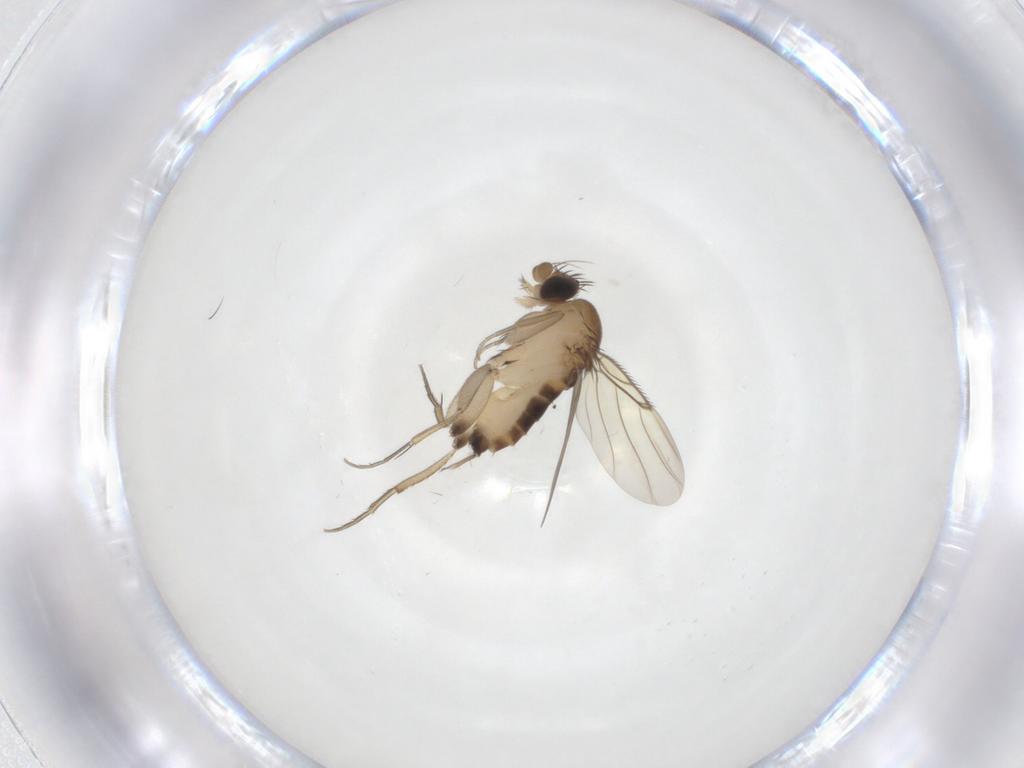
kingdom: Animalia
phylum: Arthropoda
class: Insecta
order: Diptera
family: Phoridae
